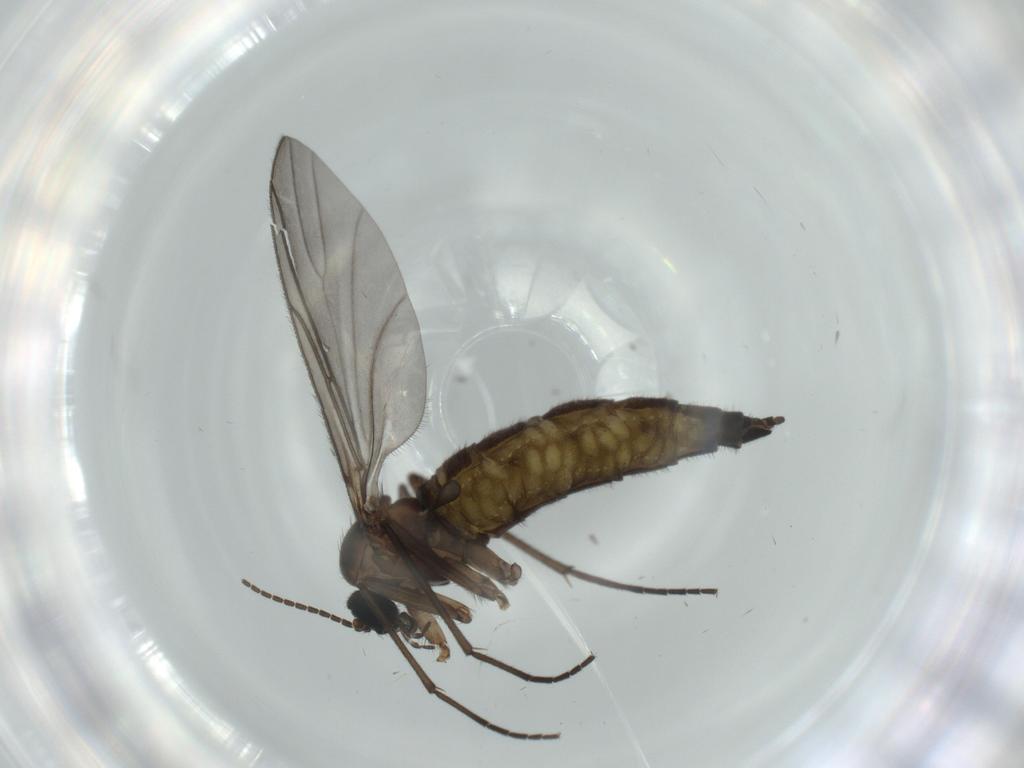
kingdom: Animalia
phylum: Arthropoda
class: Insecta
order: Diptera
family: Sciaridae
